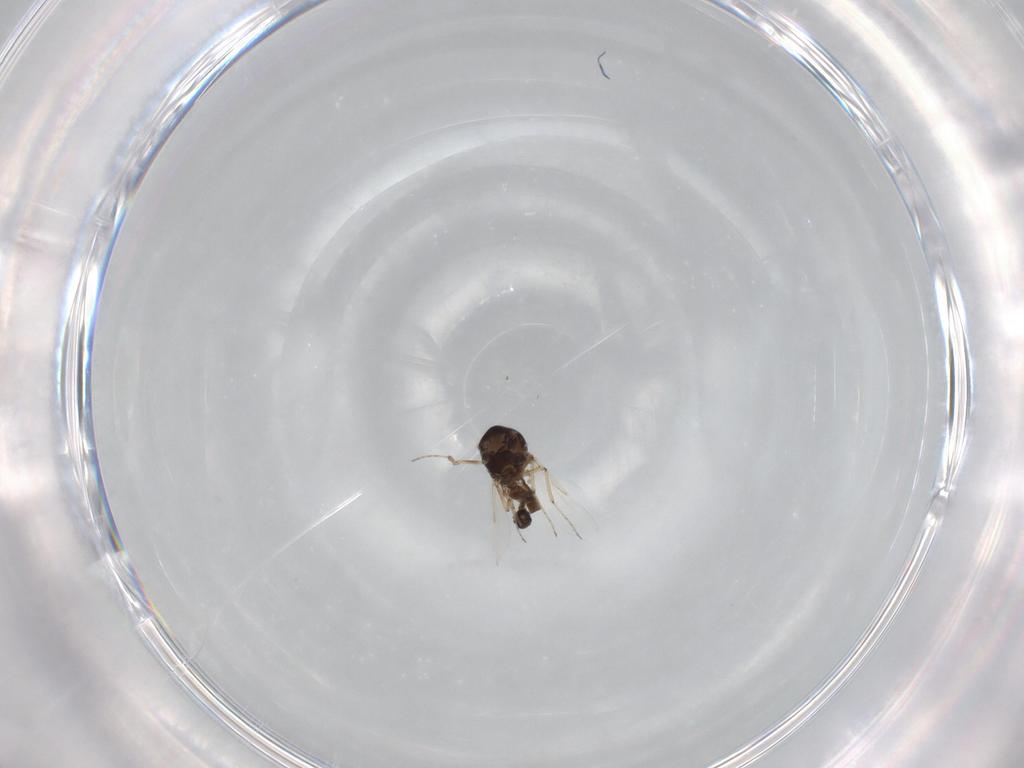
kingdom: Animalia
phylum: Arthropoda
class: Insecta
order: Diptera
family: Ceratopogonidae
